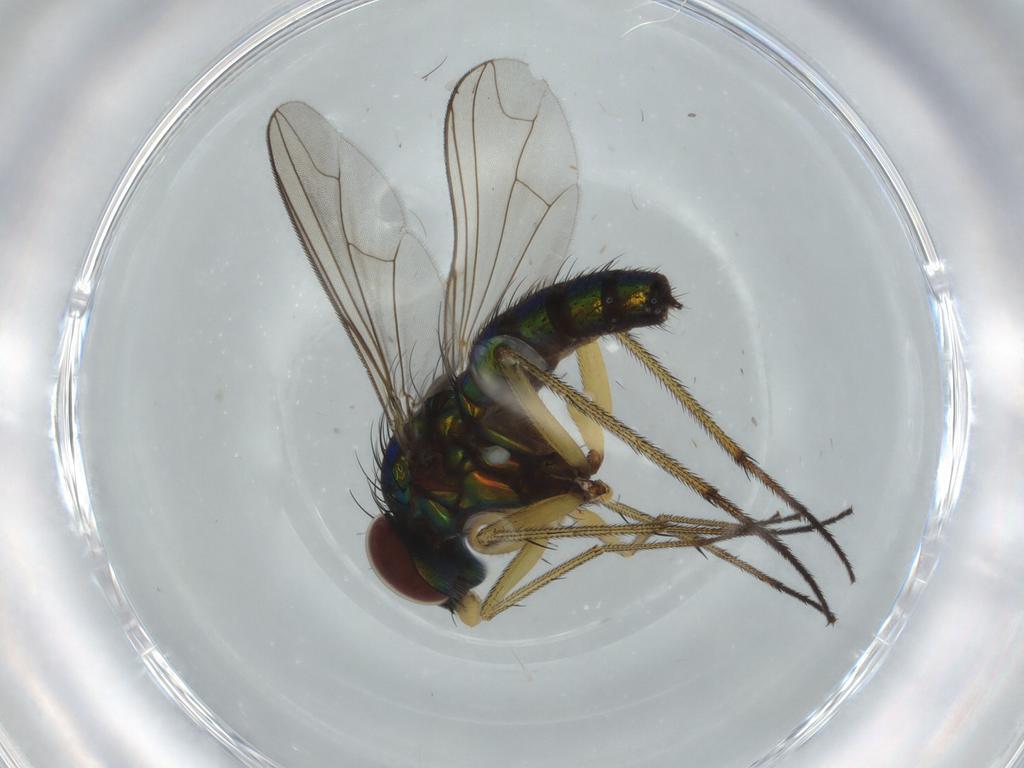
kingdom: Animalia
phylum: Arthropoda
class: Insecta
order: Diptera
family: Dolichopodidae
